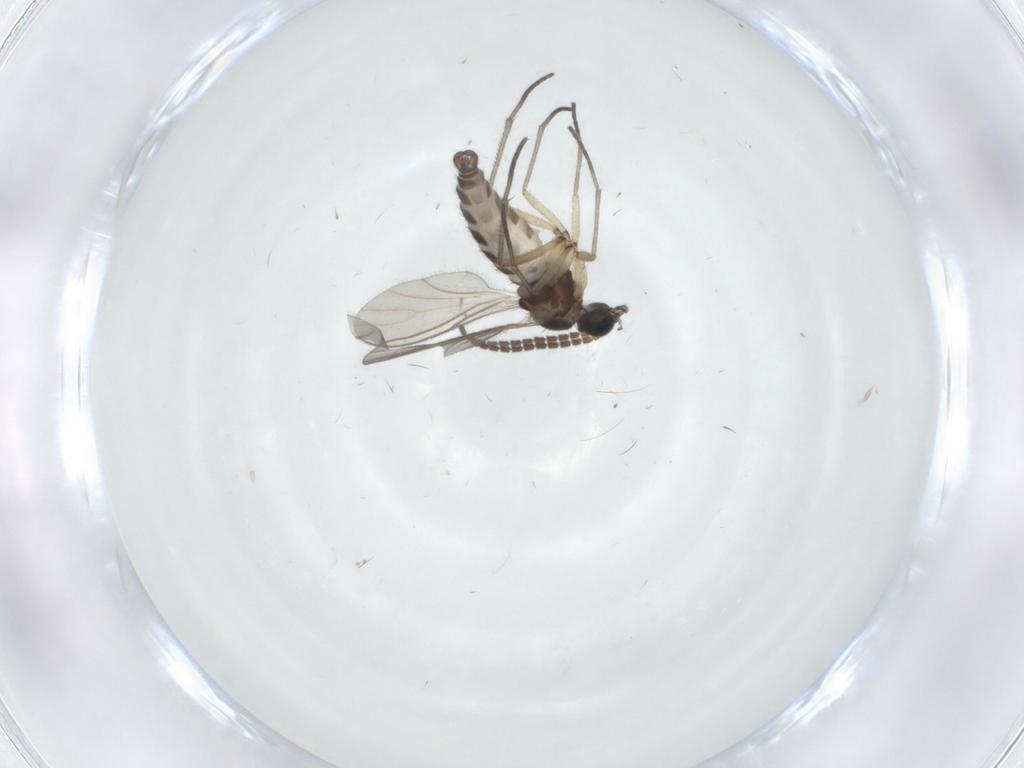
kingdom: Animalia
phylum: Arthropoda
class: Insecta
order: Diptera
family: Sciaridae
